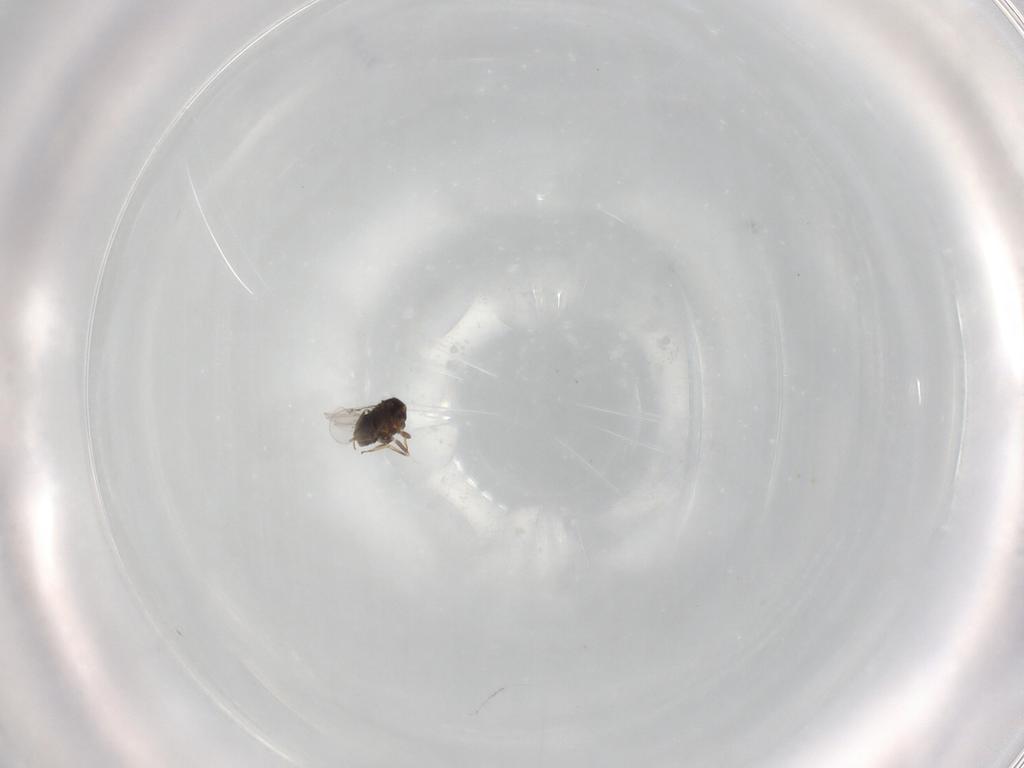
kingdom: Animalia
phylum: Arthropoda
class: Insecta
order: Hymenoptera
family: Aphelinidae
